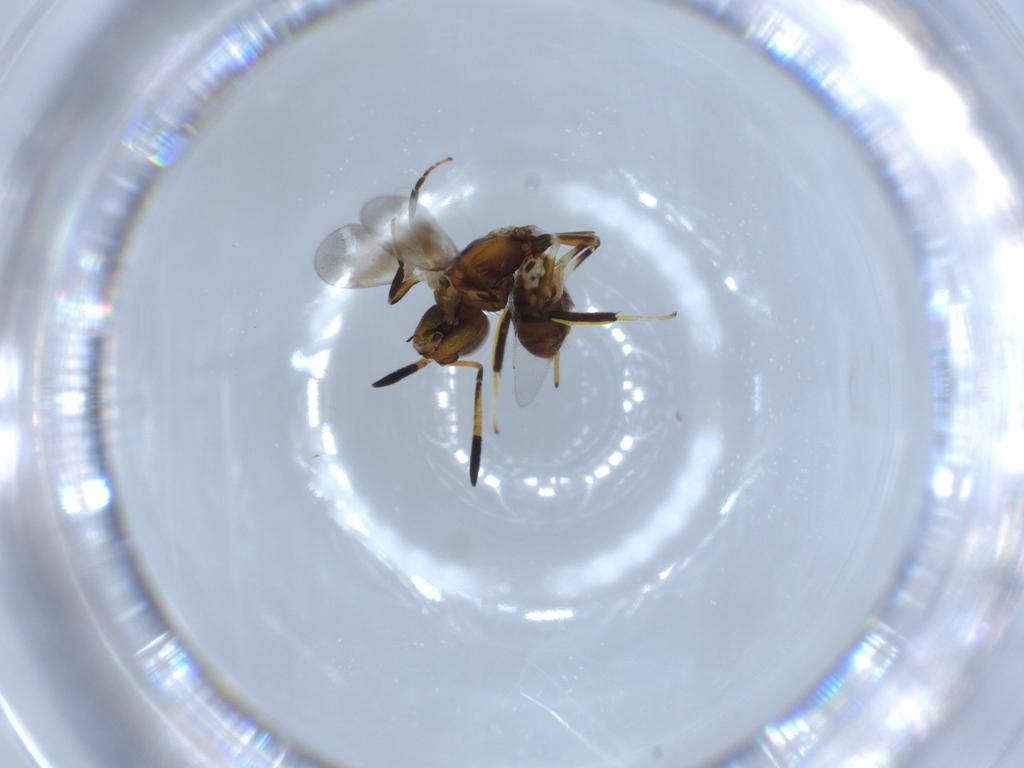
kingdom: Animalia
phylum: Arthropoda
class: Insecta
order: Hymenoptera
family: Eupelmidae
